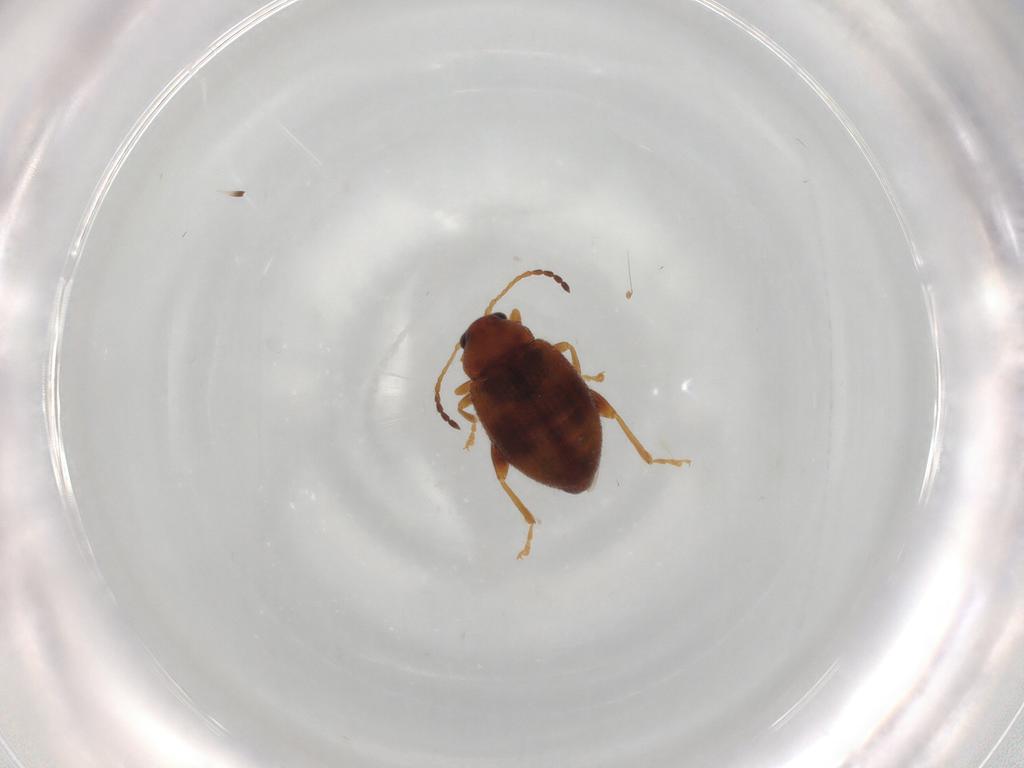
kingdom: Animalia
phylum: Arthropoda
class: Insecta
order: Coleoptera
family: Chrysomelidae
